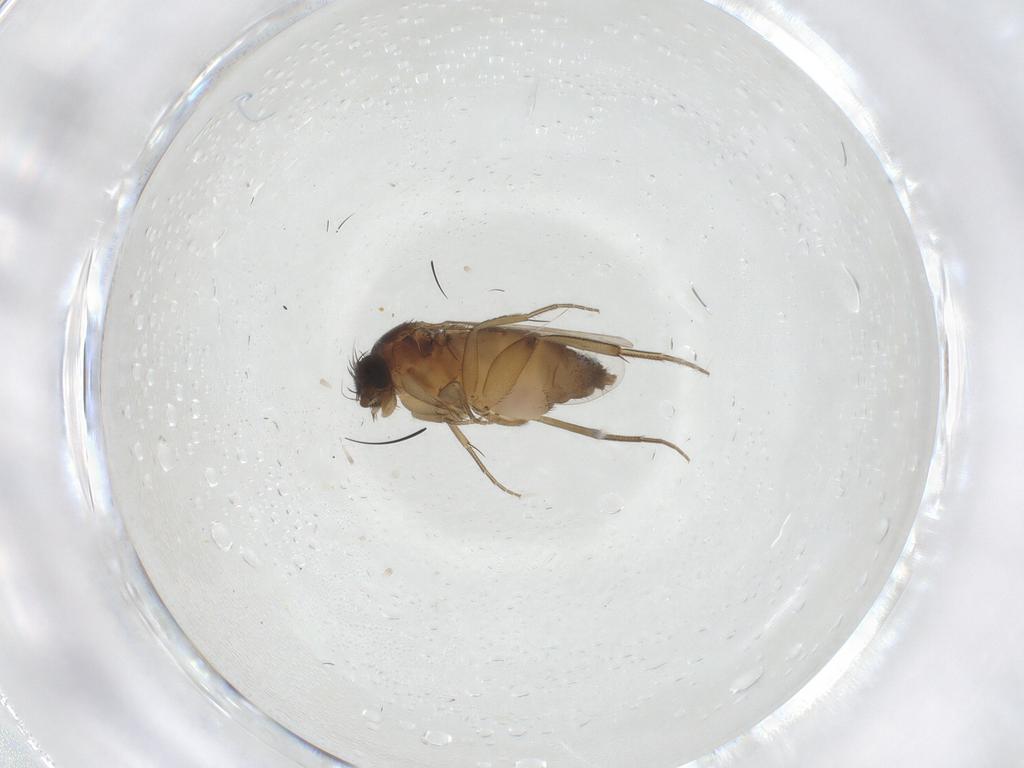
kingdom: Animalia
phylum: Arthropoda
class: Insecta
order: Diptera
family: Phoridae
